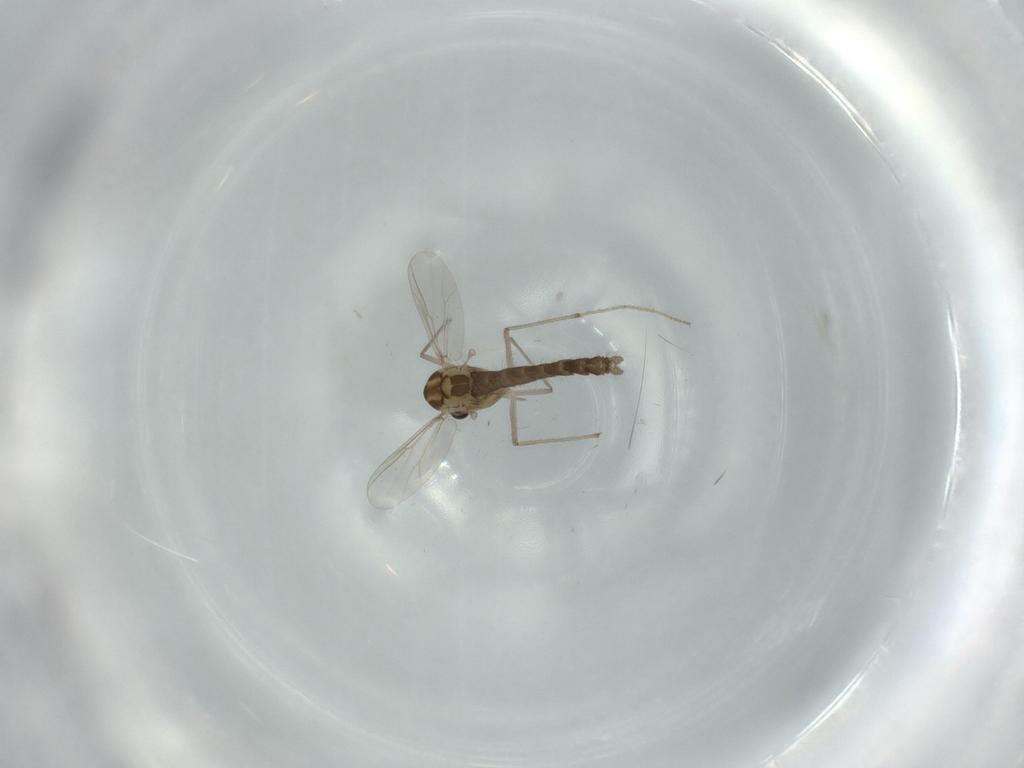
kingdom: Animalia
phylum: Arthropoda
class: Insecta
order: Diptera
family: Chironomidae
